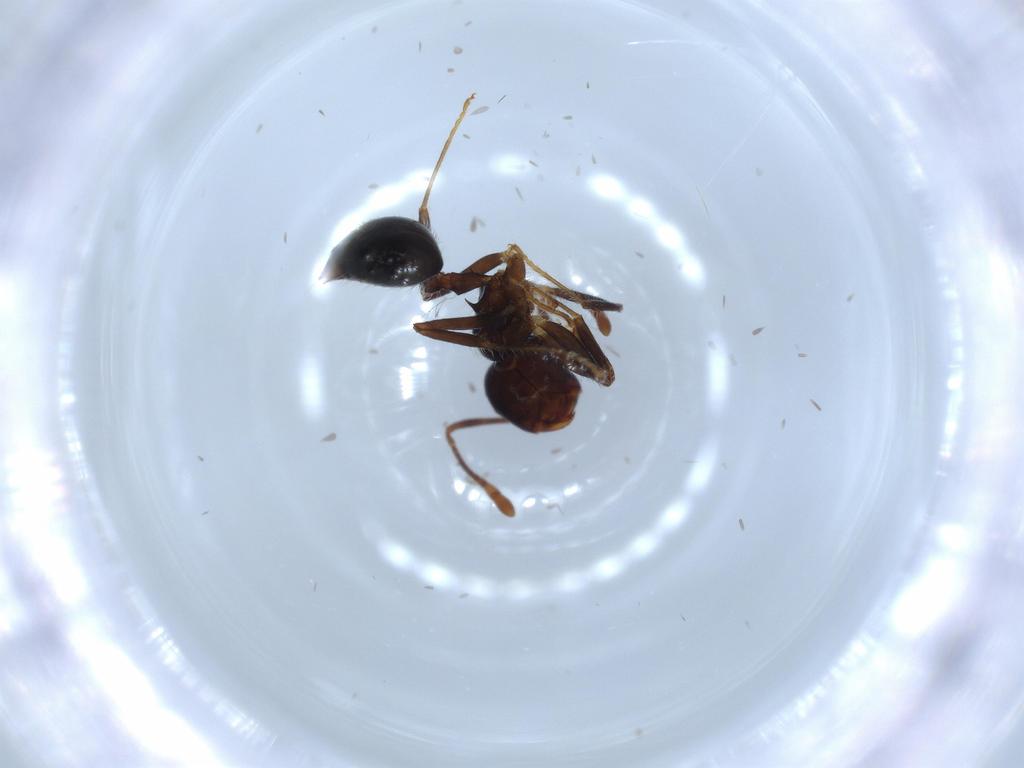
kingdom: Animalia
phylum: Arthropoda
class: Insecta
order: Hymenoptera
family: Formicidae
